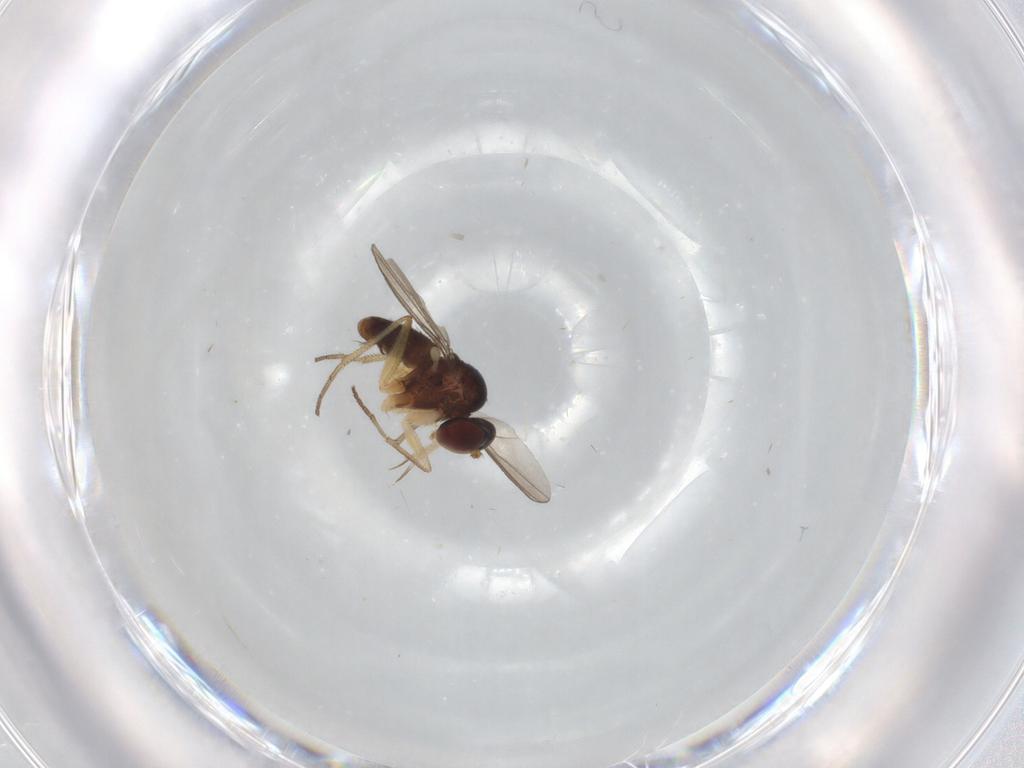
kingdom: Animalia
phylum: Arthropoda
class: Insecta
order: Diptera
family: Dolichopodidae
